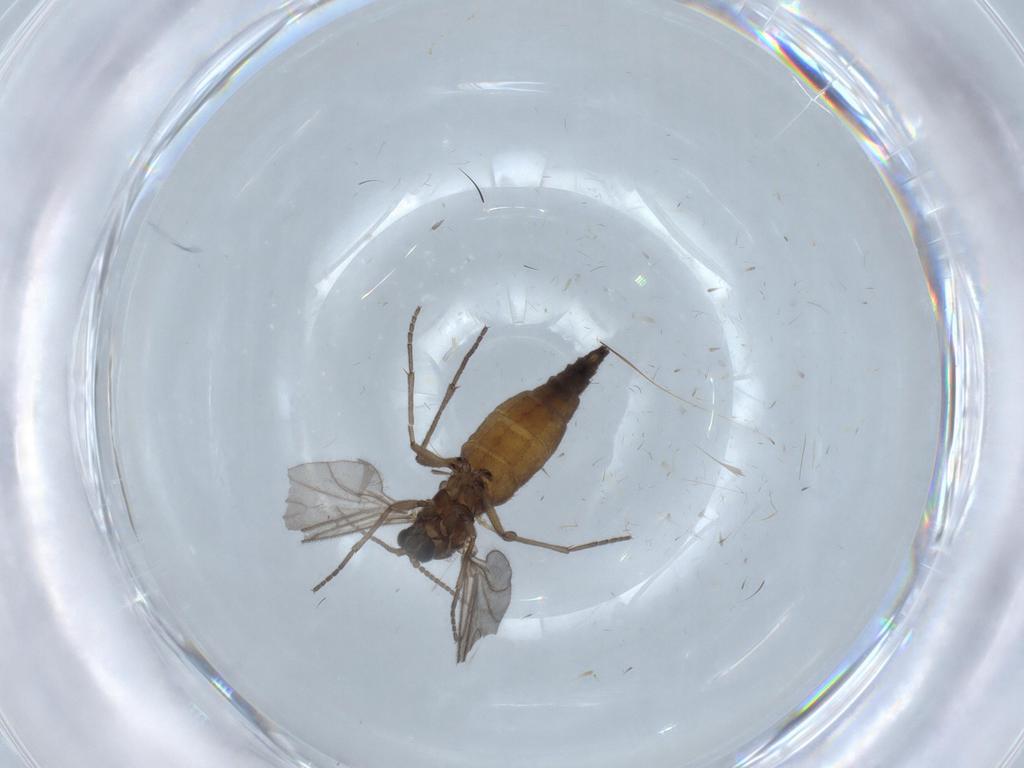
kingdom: Animalia
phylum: Arthropoda
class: Insecta
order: Diptera
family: Sciaridae
